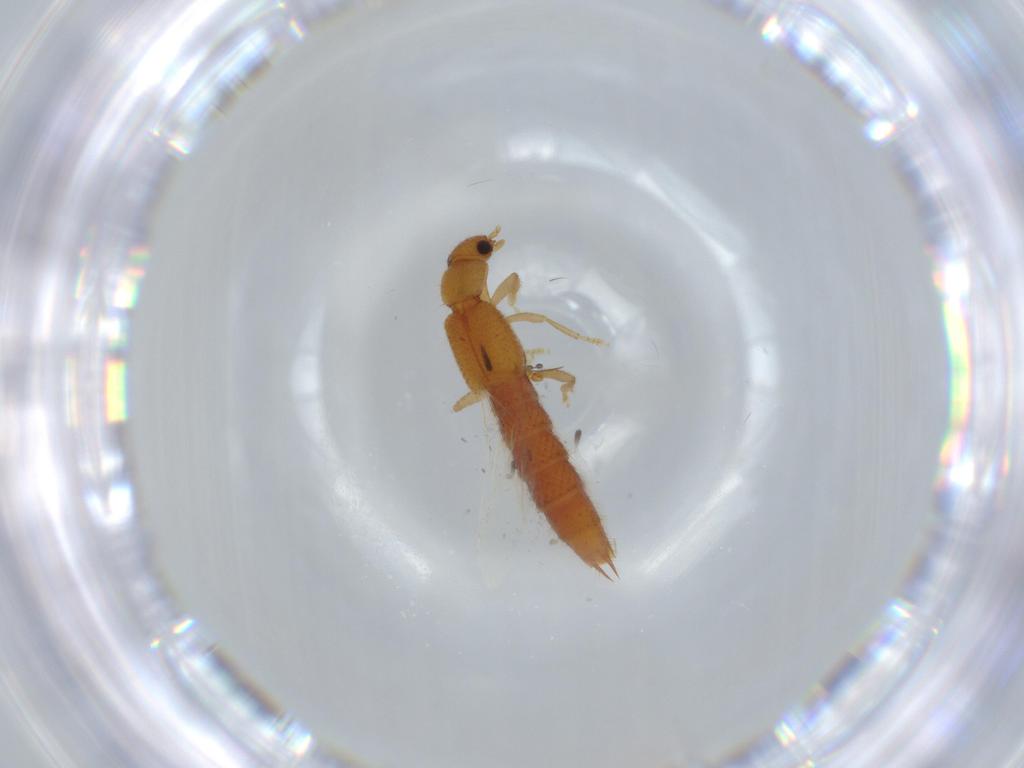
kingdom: Animalia
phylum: Arthropoda
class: Insecta
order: Coleoptera
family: Staphylinidae
